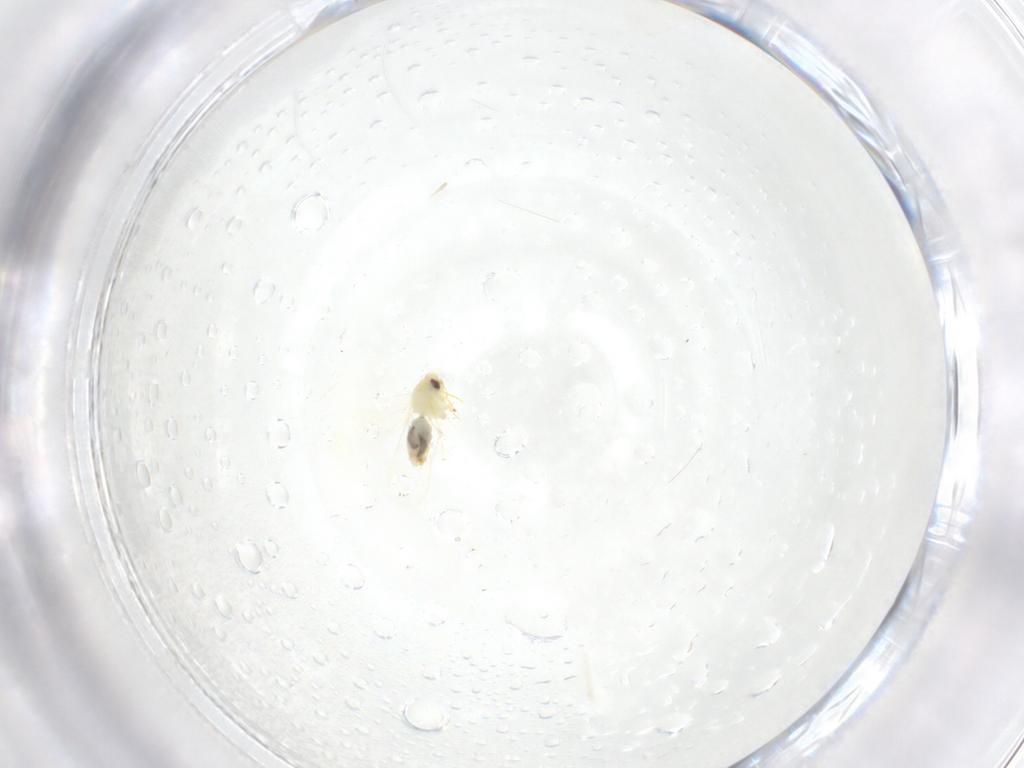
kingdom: Animalia
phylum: Arthropoda
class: Insecta
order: Hemiptera
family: Aleyrodidae
